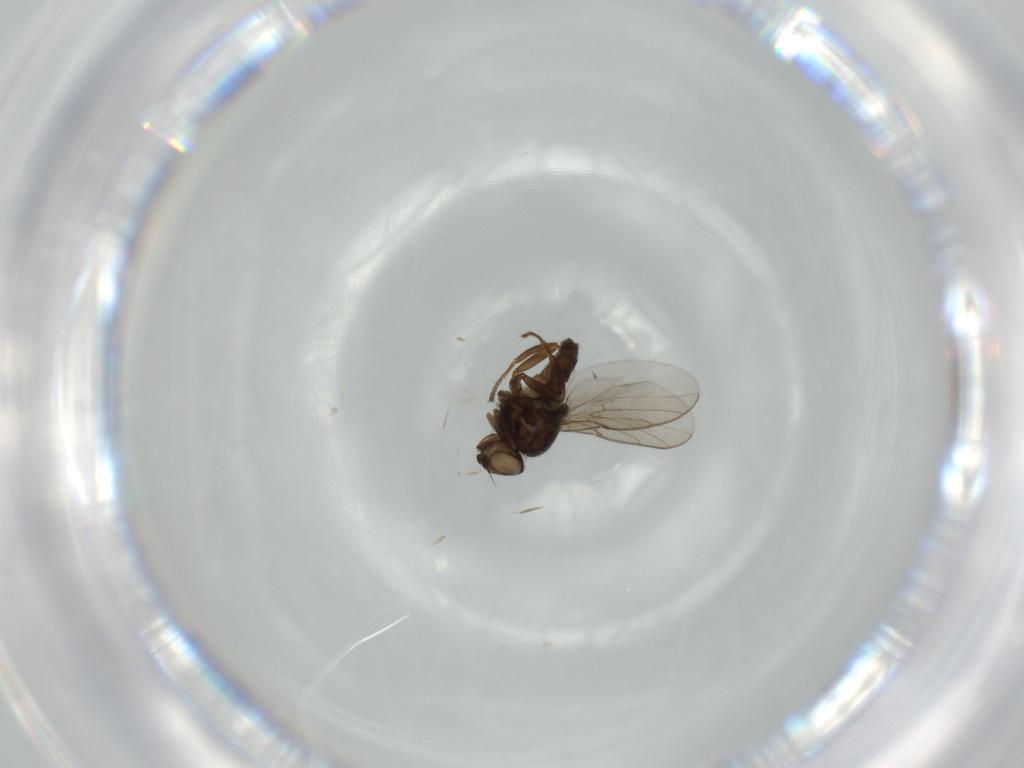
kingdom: Animalia
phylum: Arthropoda
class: Insecta
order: Diptera
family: Chloropidae
